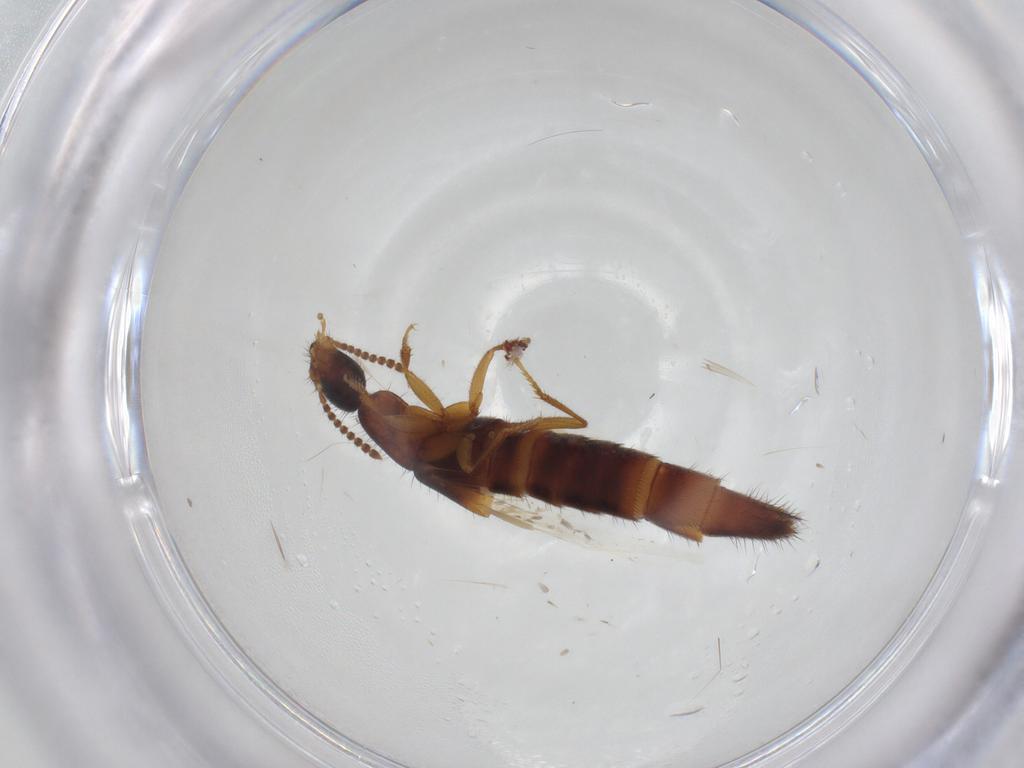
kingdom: Animalia
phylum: Arthropoda
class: Insecta
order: Coleoptera
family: Staphylinidae
